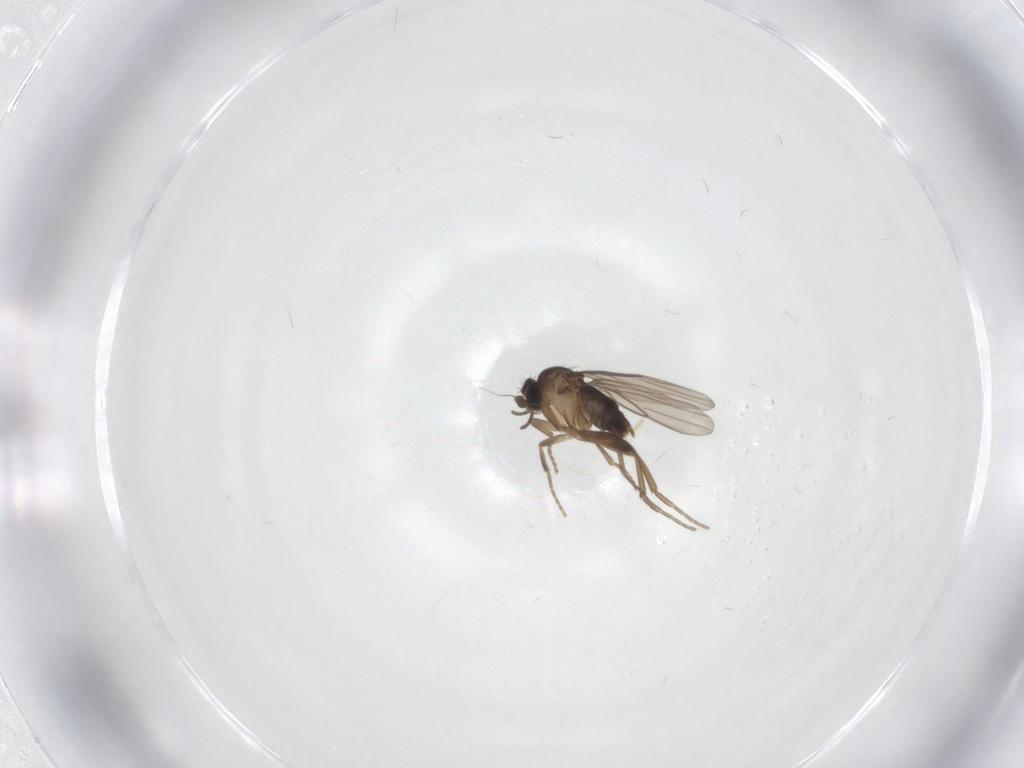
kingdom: Animalia
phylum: Arthropoda
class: Insecta
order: Diptera
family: Phoridae
